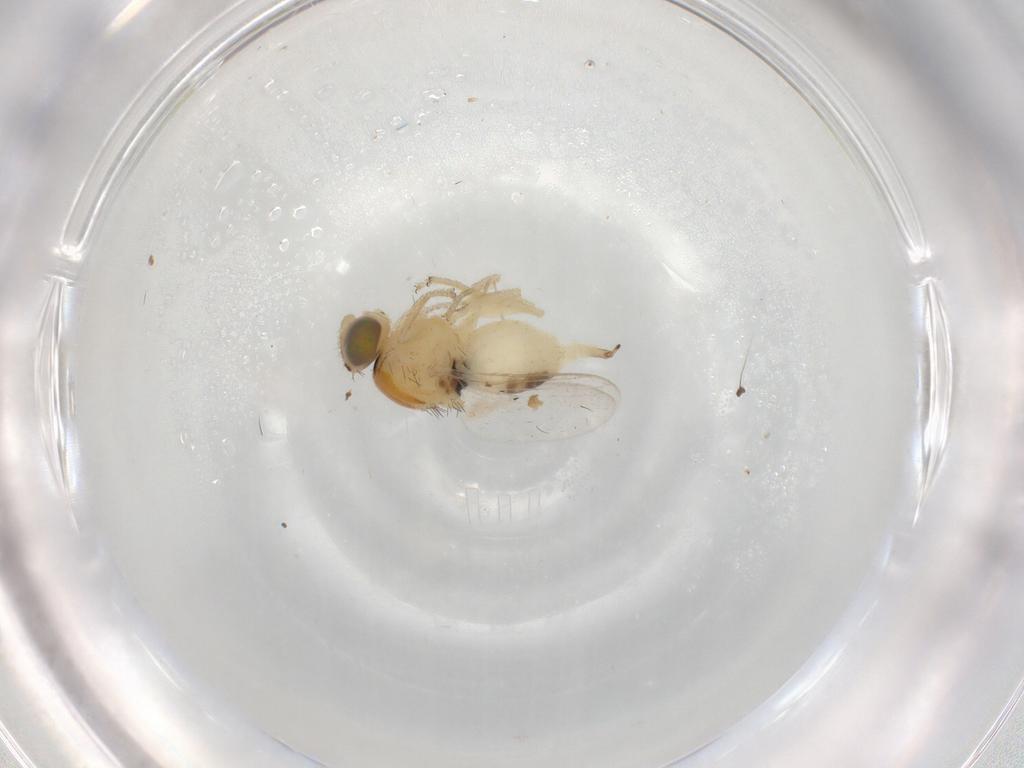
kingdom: Animalia
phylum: Arthropoda
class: Insecta
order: Diptera
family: Chloropidae
